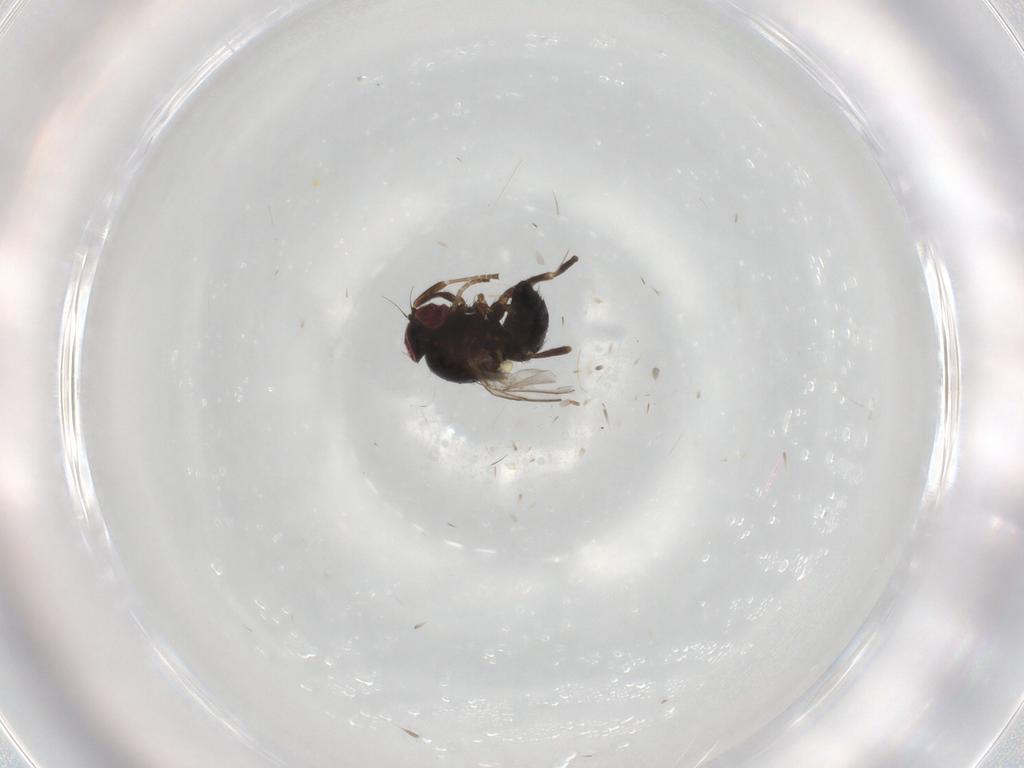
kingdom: Animalia
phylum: Arthropoda
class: Insecta
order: Diptera
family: Agromyzidae
